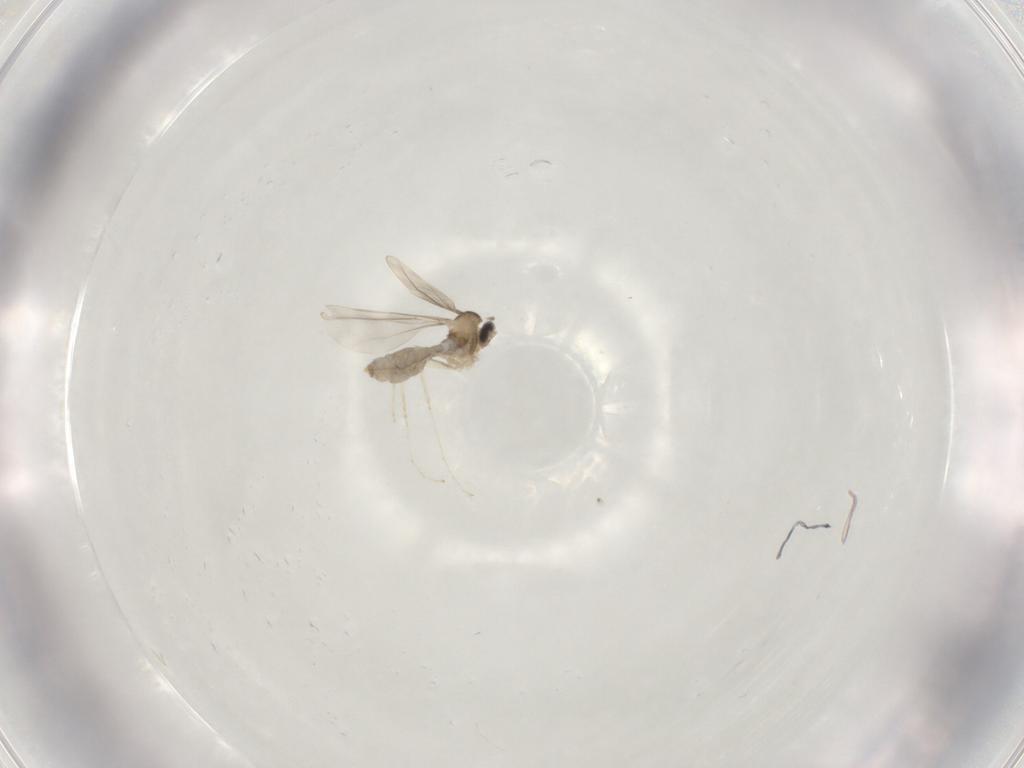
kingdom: Animalia
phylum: Arthropoda
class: Insecta
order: Diptera
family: Cecidomyiidae
